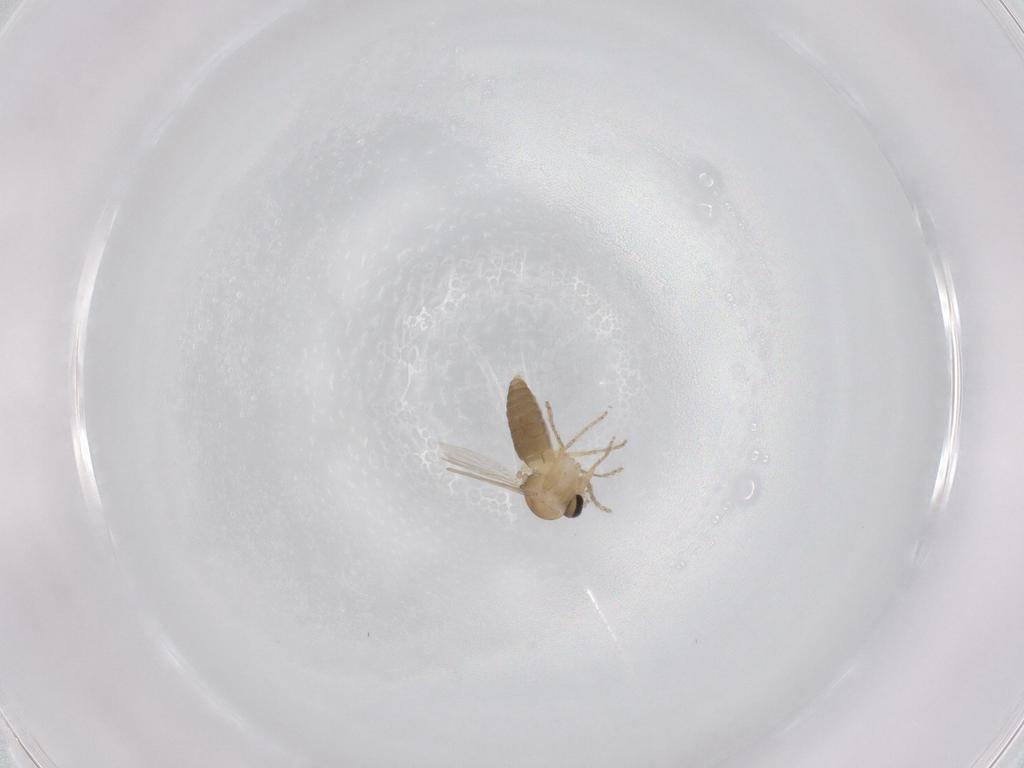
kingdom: Animalia
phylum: Arthropoda
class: Insecta
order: Diptera
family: Ceratopogonidae
